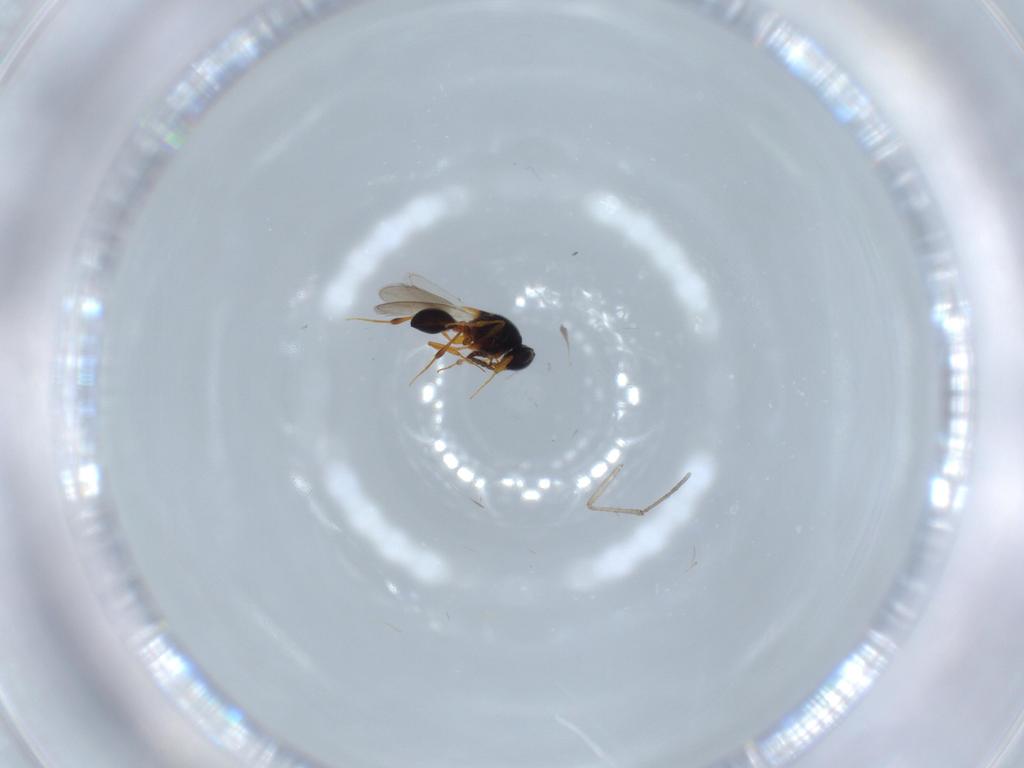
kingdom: Animalia
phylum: Arthropoda
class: Insecta
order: Hymenoptera
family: Platygastridae
